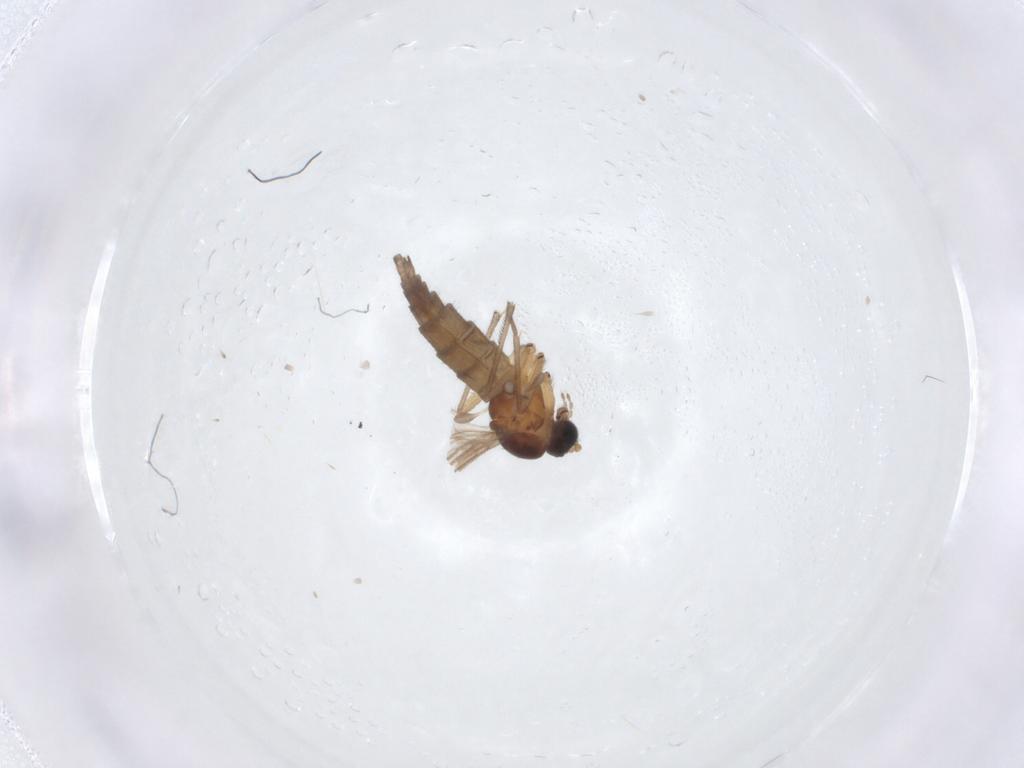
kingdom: Animalia
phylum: Arthropoda
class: Insecta
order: Diptera
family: Sciaridae
